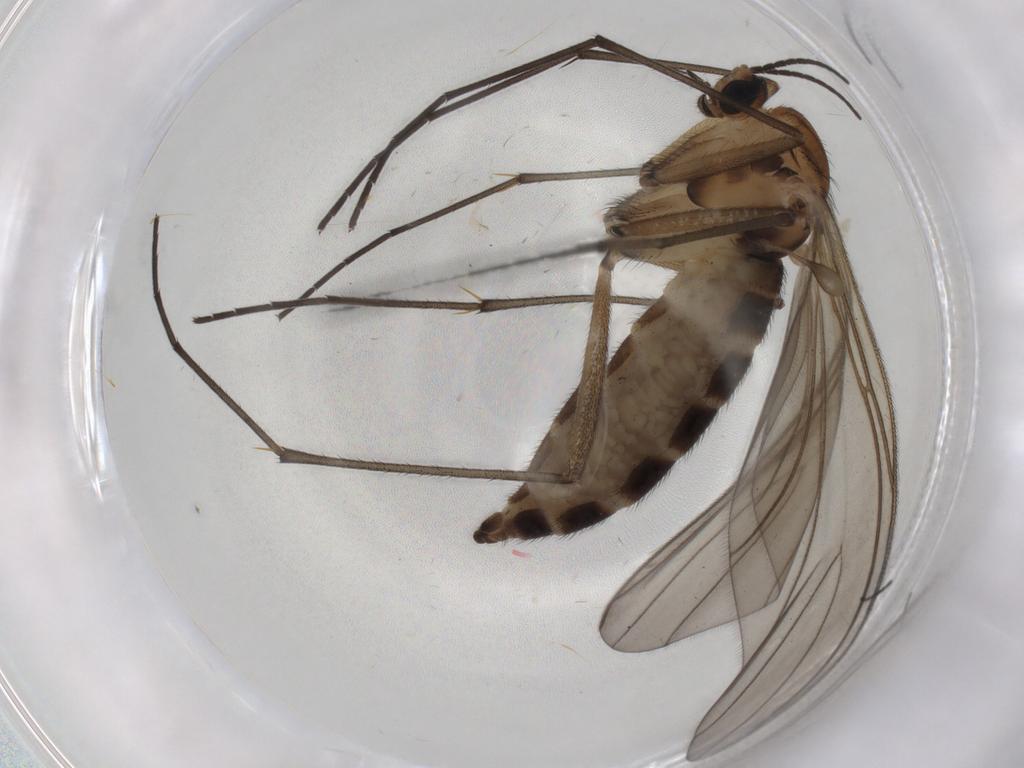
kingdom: Animalia
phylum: Arthropoda
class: Insecta
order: Diptera
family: Sciaridae
